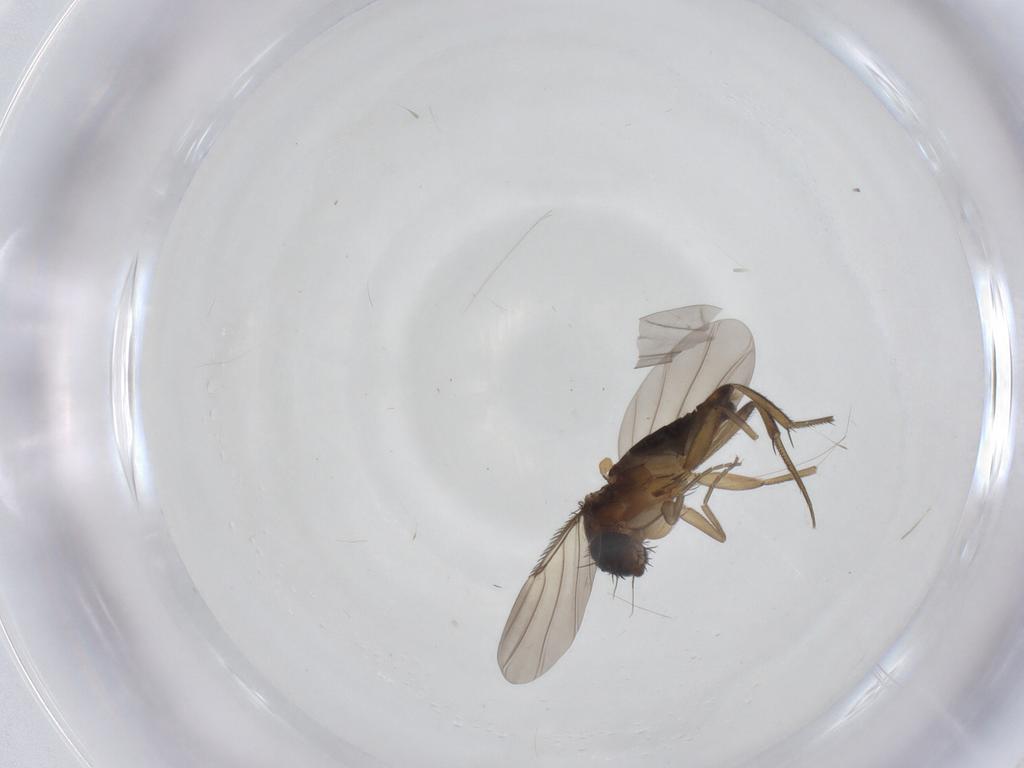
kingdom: Animalia
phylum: Arthropoda
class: Insecta
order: Diptera
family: Phoridae
